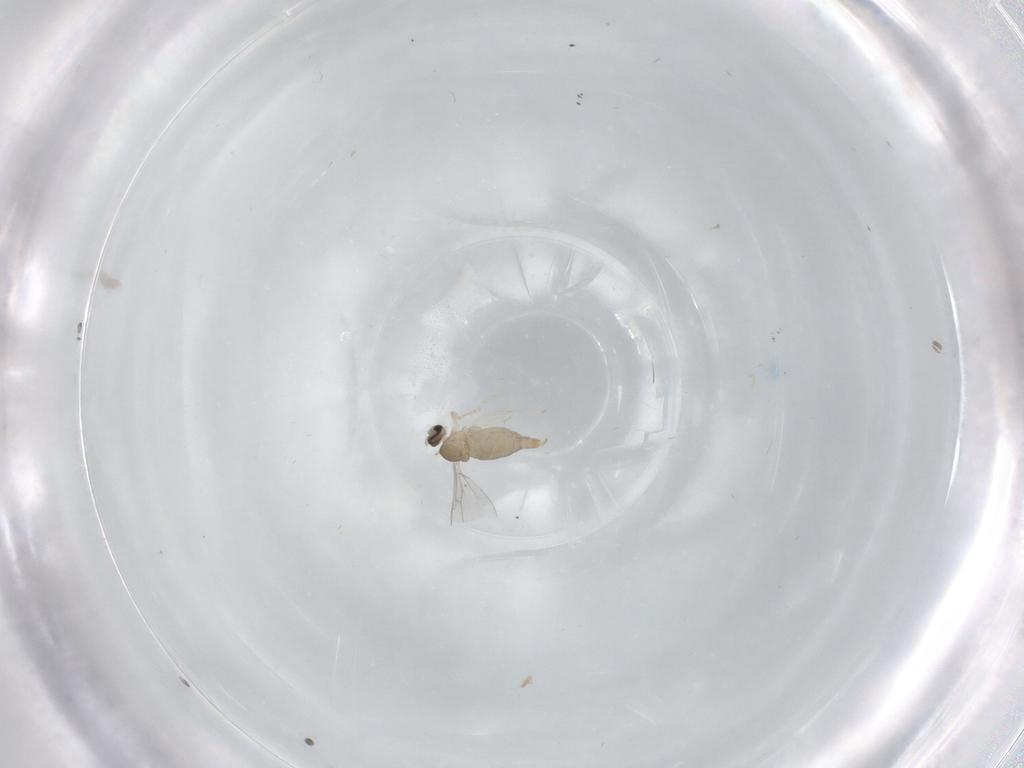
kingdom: Animalia
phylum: Arthropoda
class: Insecta
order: Diptera
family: Cecidomyiidae
